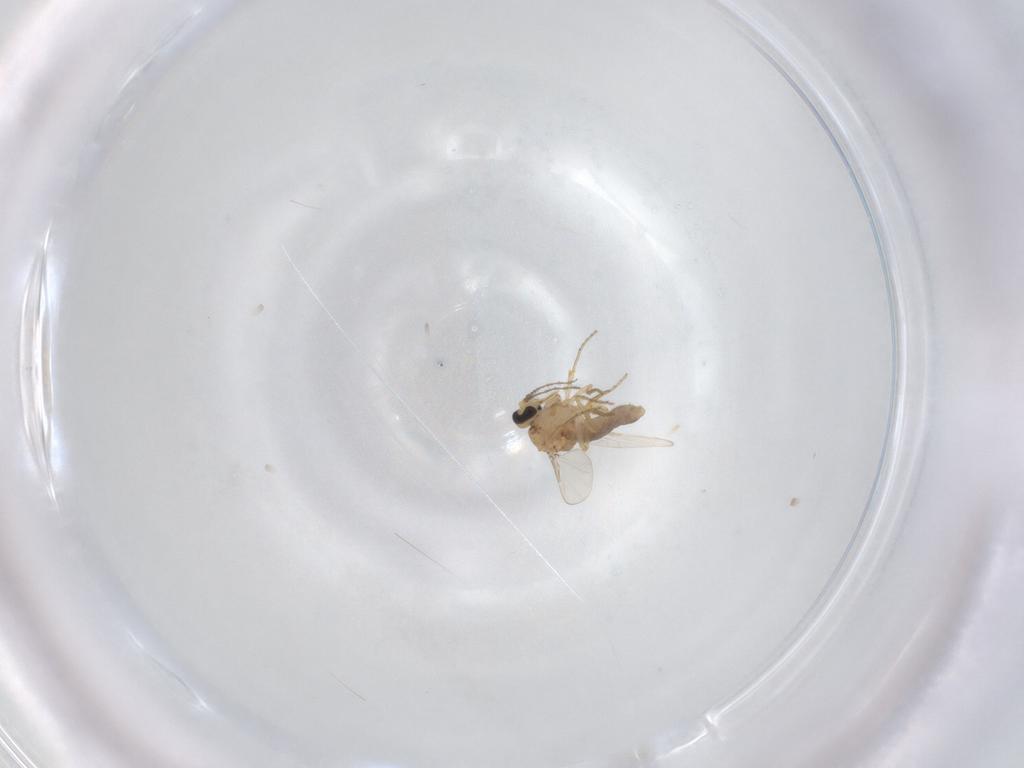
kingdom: Animalia
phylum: Arthropoda
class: Insecta
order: Diptera
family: Ceratopogonidae
